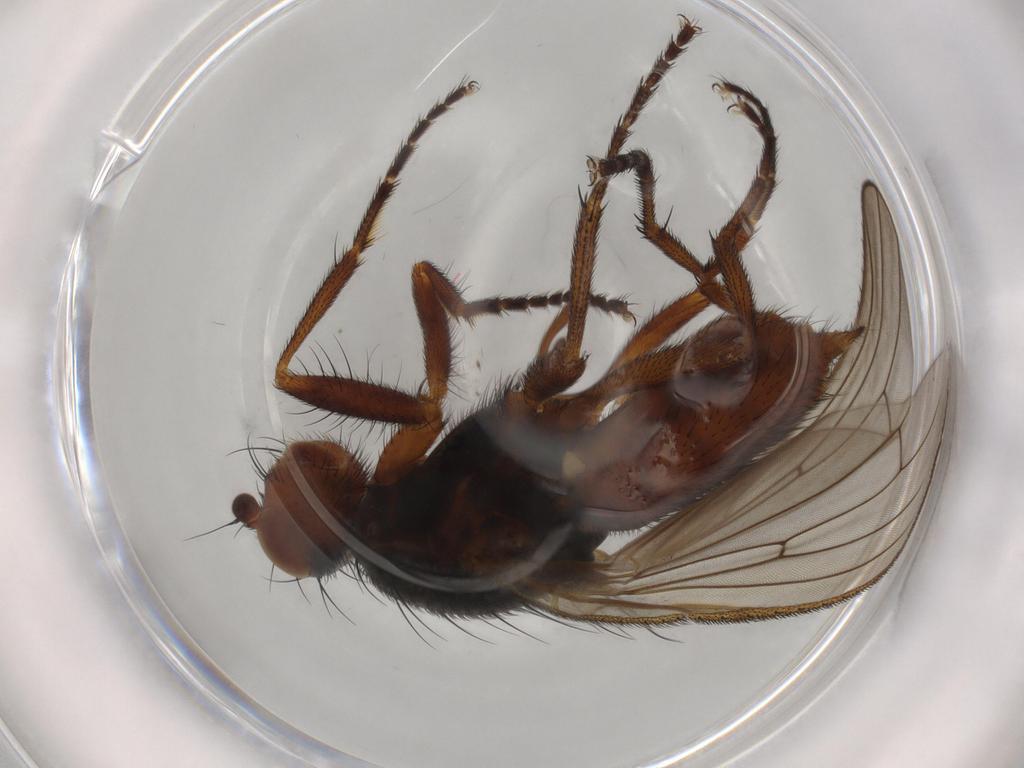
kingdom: Animalia
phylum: Arthropoda
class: Insecta
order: Diptera
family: Heleomyzidae
